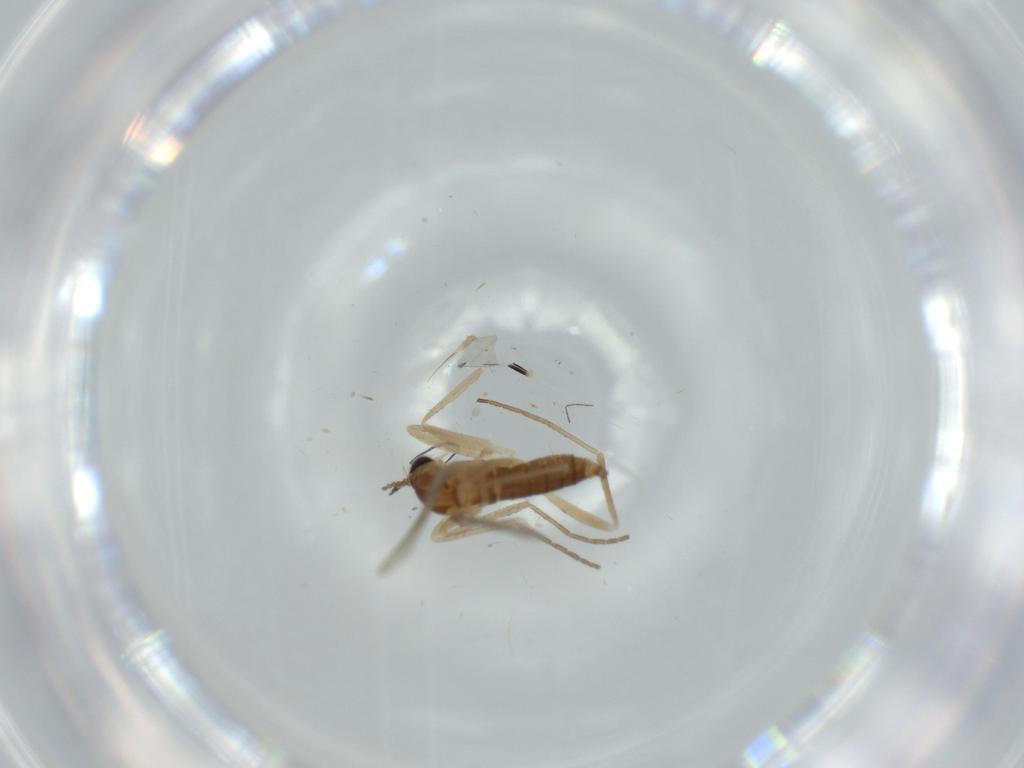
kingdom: Animalia
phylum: Arthropoda
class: Insecta
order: Diptera
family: Cecidomyiidae
